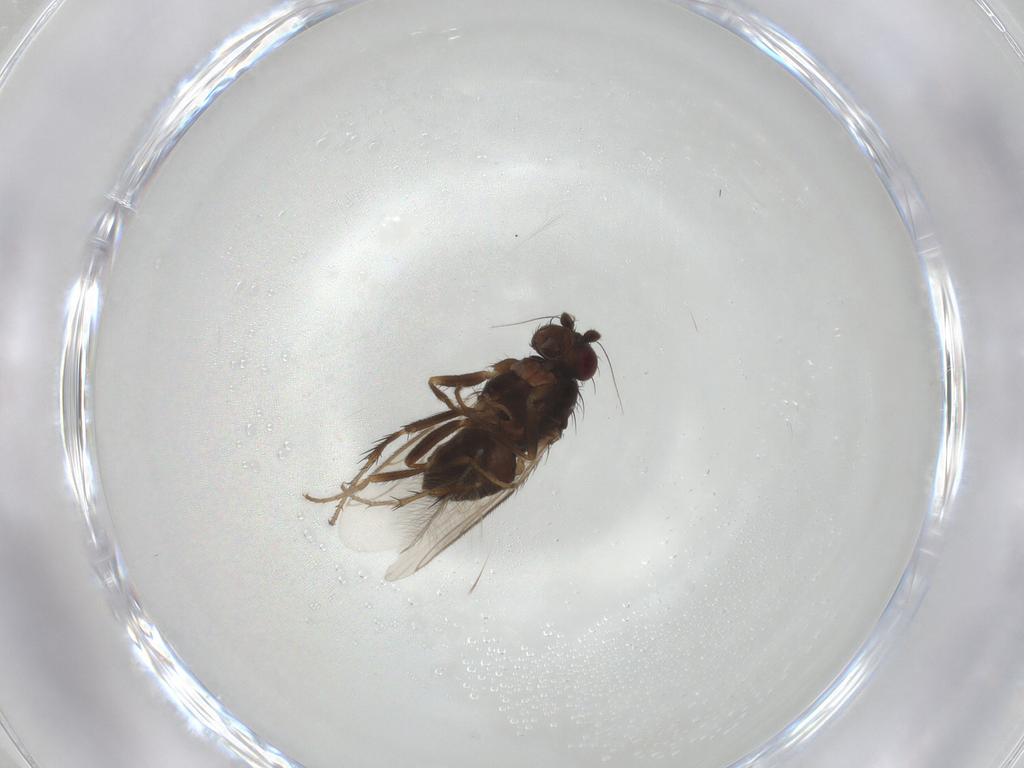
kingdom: Animalia
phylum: Arthropoda
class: Insecta
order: Diptera
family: Sphaeroceridae
